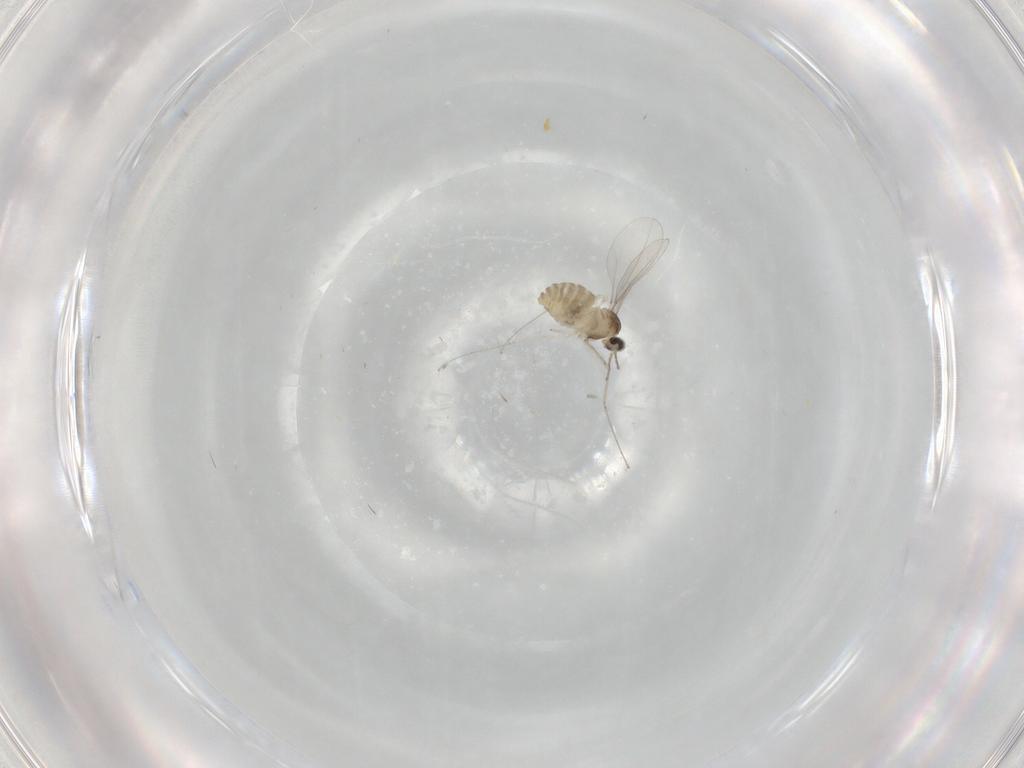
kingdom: Animalia
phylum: Arthropoda
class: Insecta
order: Diptera
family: Cecidomyiidae
